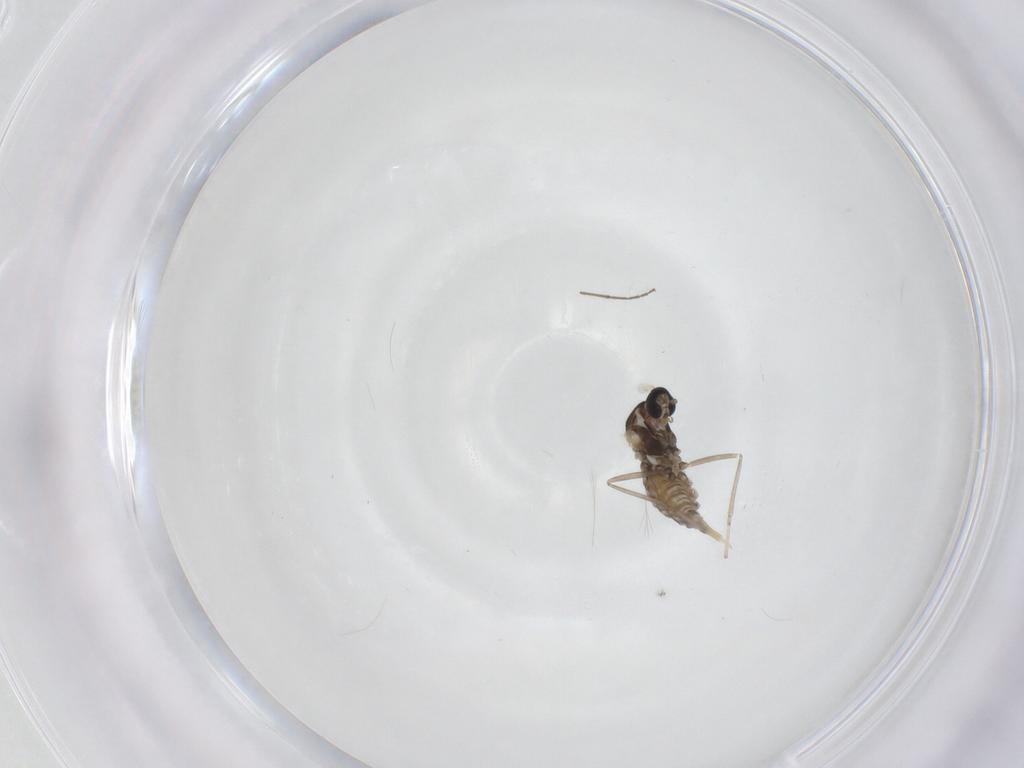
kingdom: Animalia
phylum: Arthropoda
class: Insecta
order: Diptera
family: Cecidomyiidae
